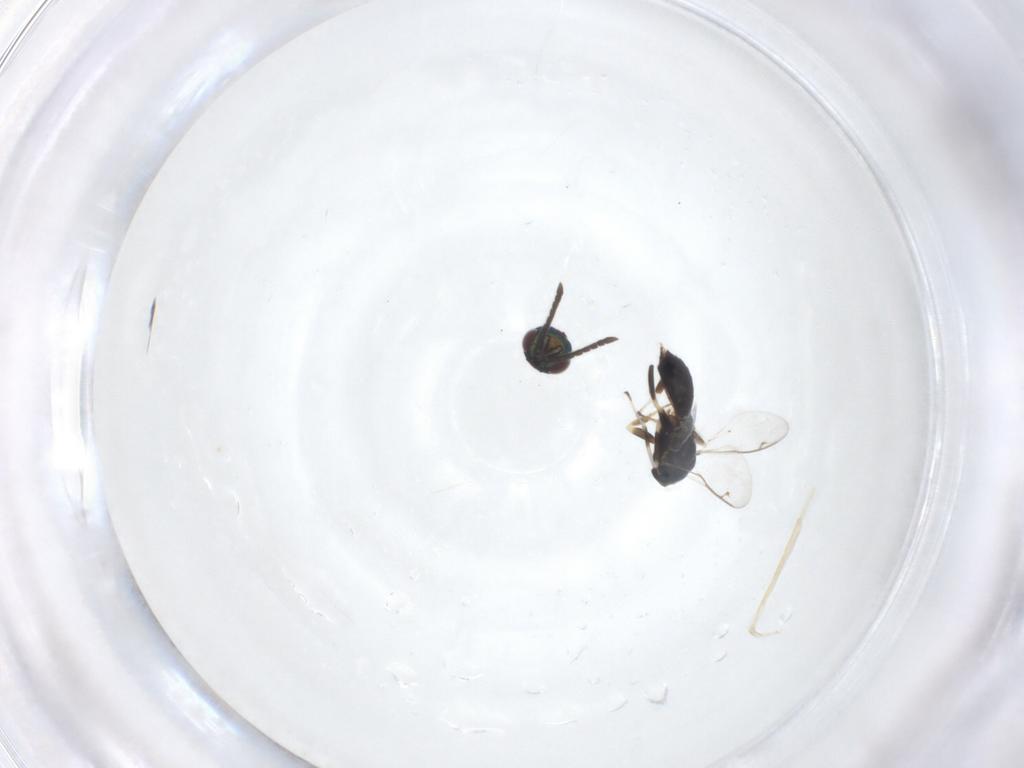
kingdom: Animalia
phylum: Arthropoda
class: Insecta
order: Hymenoptera
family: Eupelmidae
